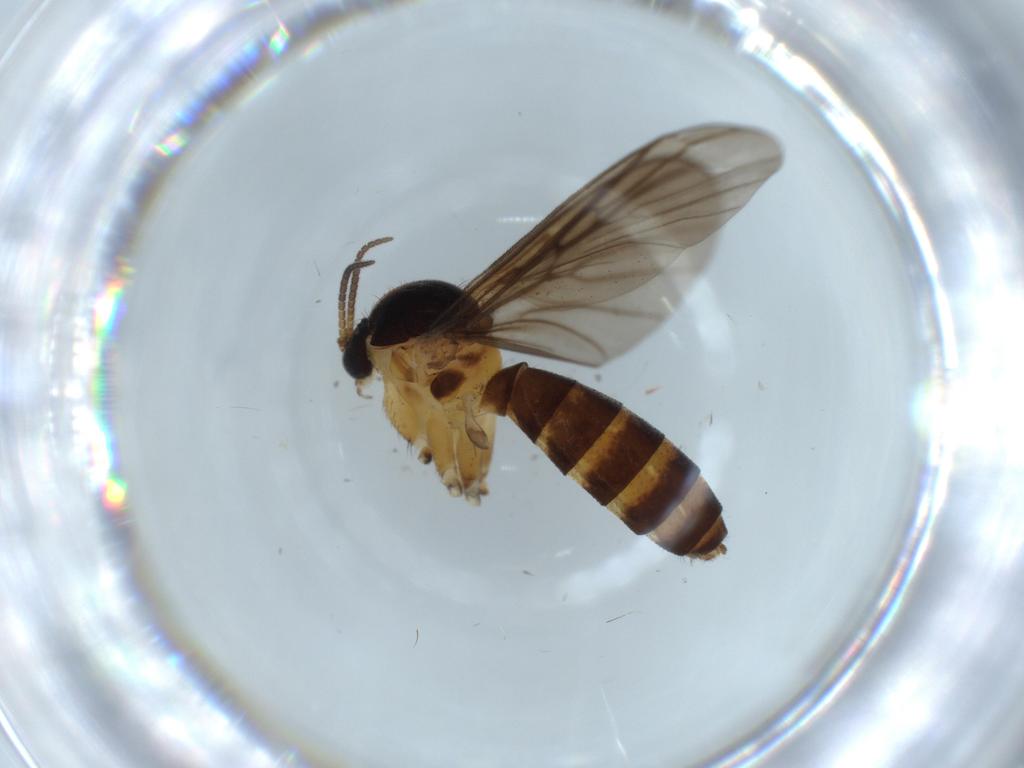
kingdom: Animalia
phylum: Arthropoda
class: Insecta
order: Diptera
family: Mycetophilidae
